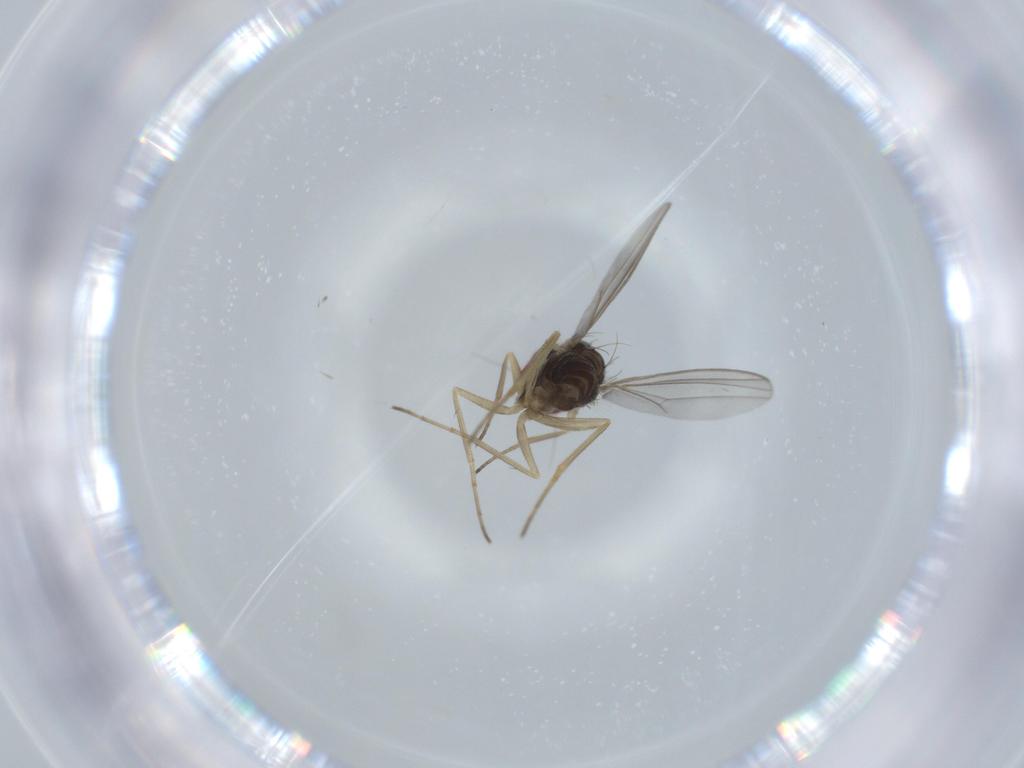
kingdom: Animalia
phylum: Arthropoda
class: Insecta
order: Diptera
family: Dolichopodidae
